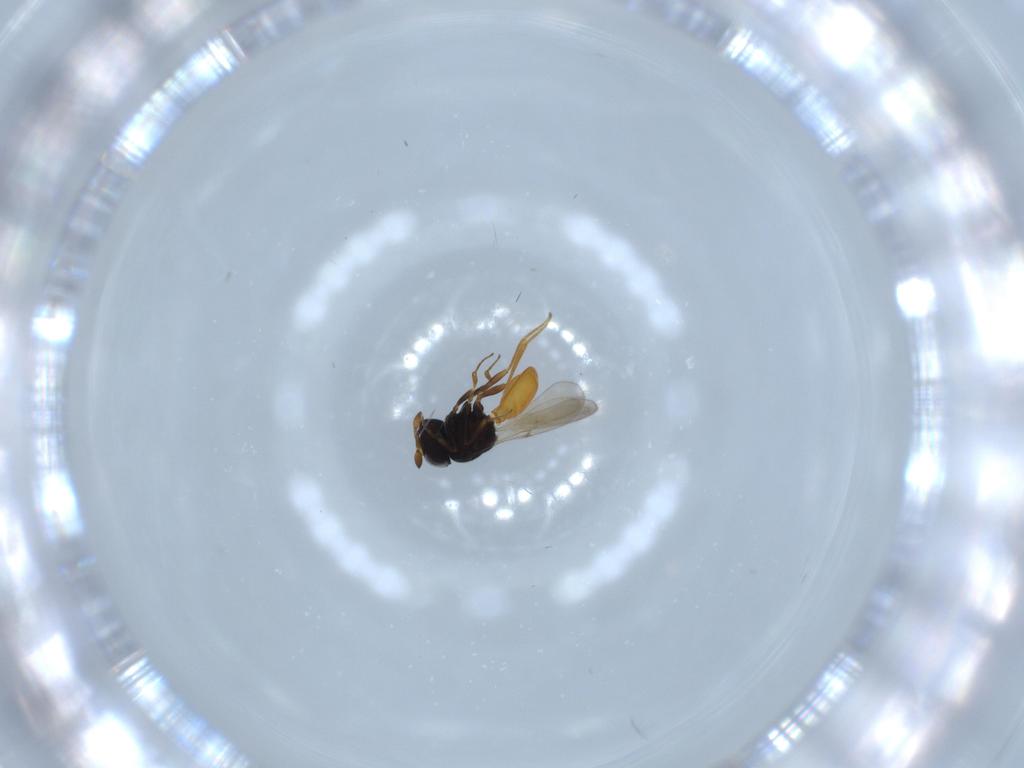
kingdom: Animalia
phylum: Arthropoda
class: Insecta
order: Hymenoptera
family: Scelionidae
